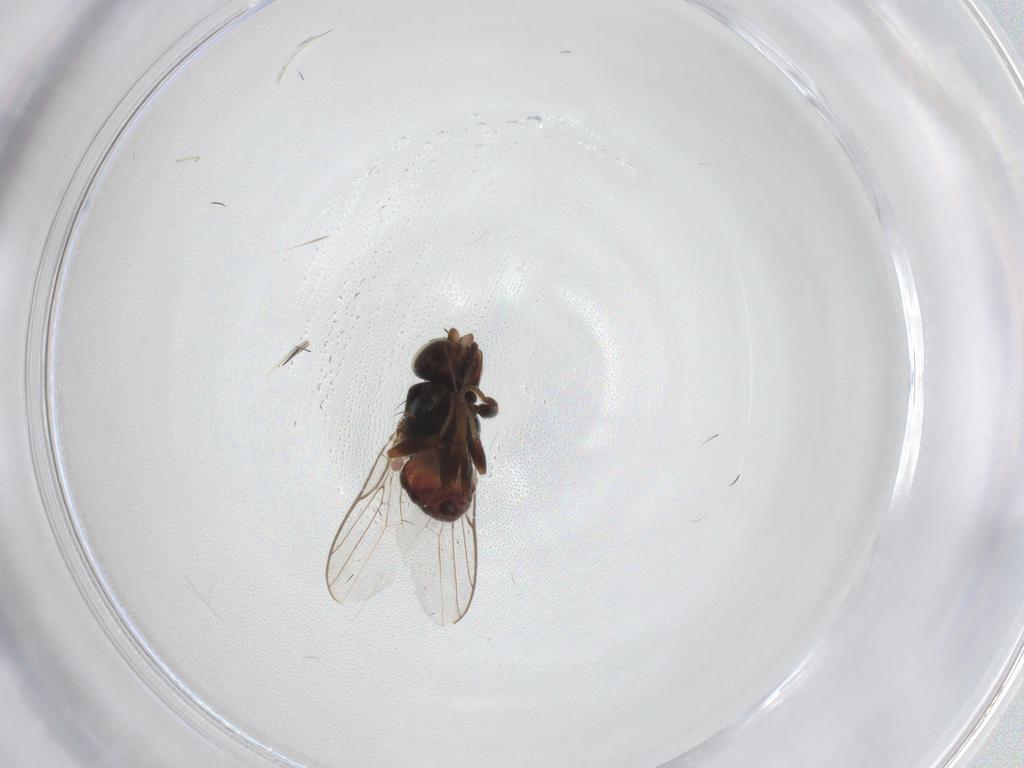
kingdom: Animalia
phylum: Arthropoda
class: Insecta
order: Diptera
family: Chloropidae
